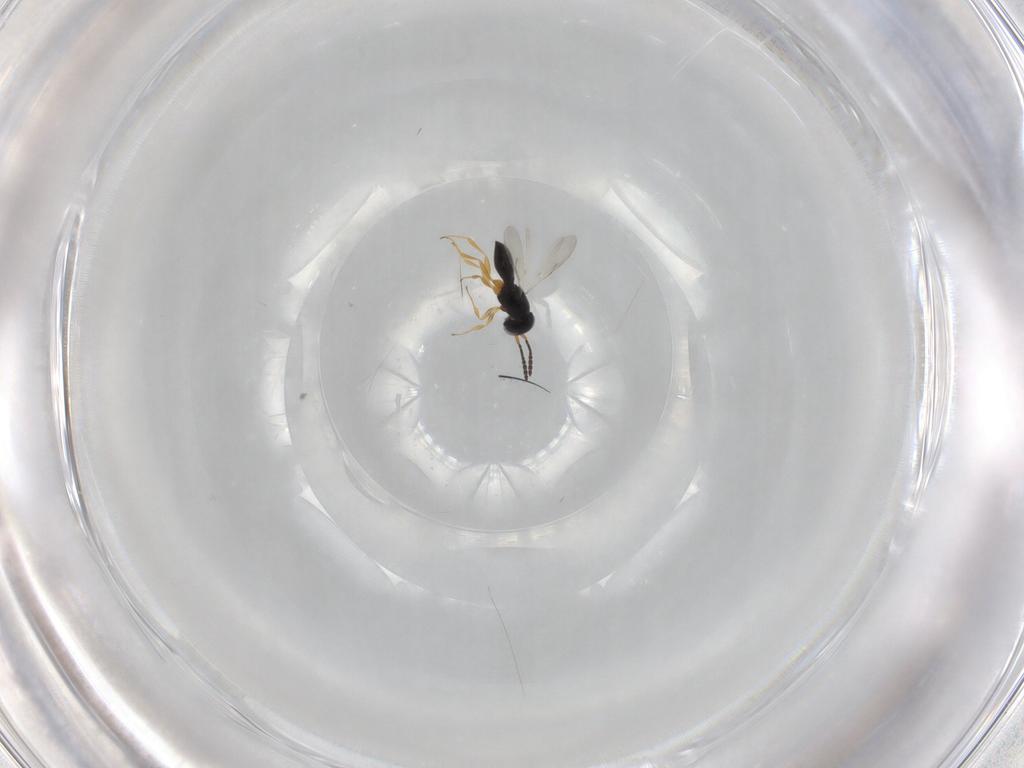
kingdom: Animalia
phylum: Arthropoda
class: Insecta
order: Hymenoptera
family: Scelionidae
